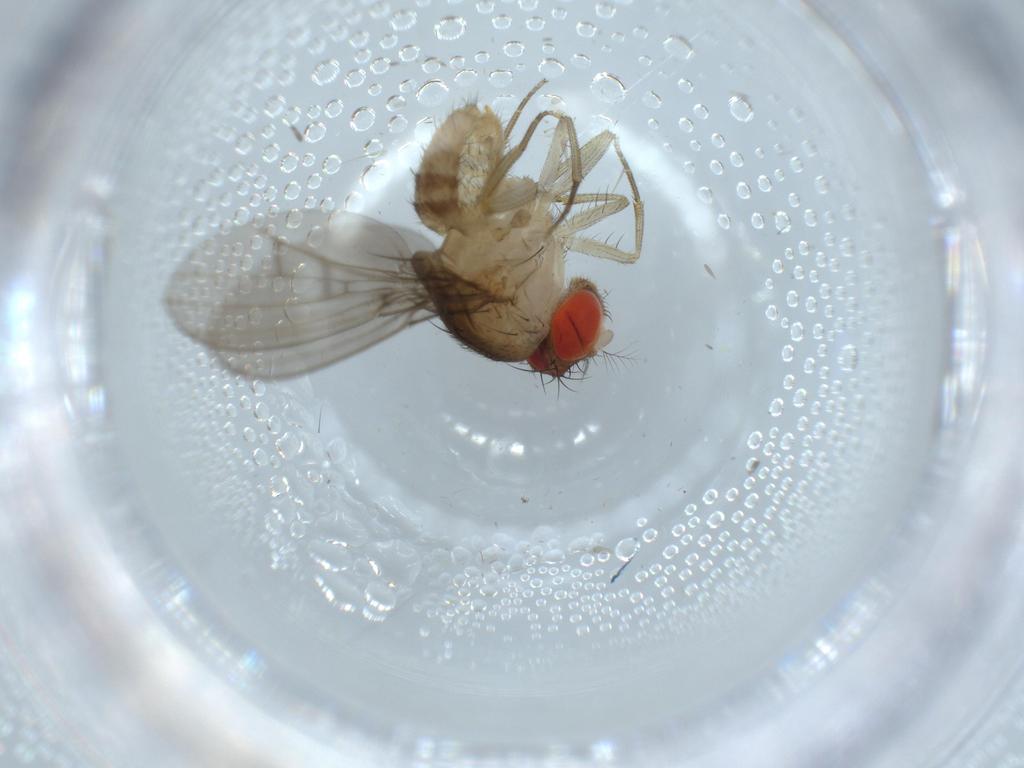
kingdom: Animalia
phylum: Arthropoda
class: Insecta
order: Diptera
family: Drosophilidae
